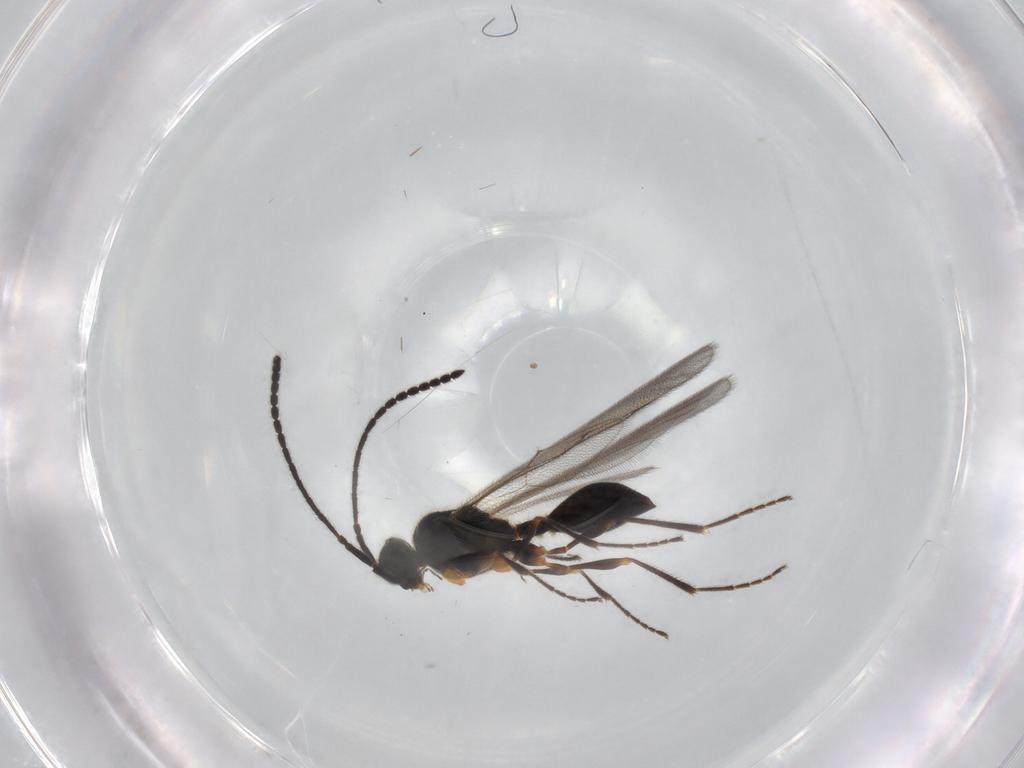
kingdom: Animalia
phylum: Arthropoda
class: Insecta
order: Hymenoptera
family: Diapriidae
